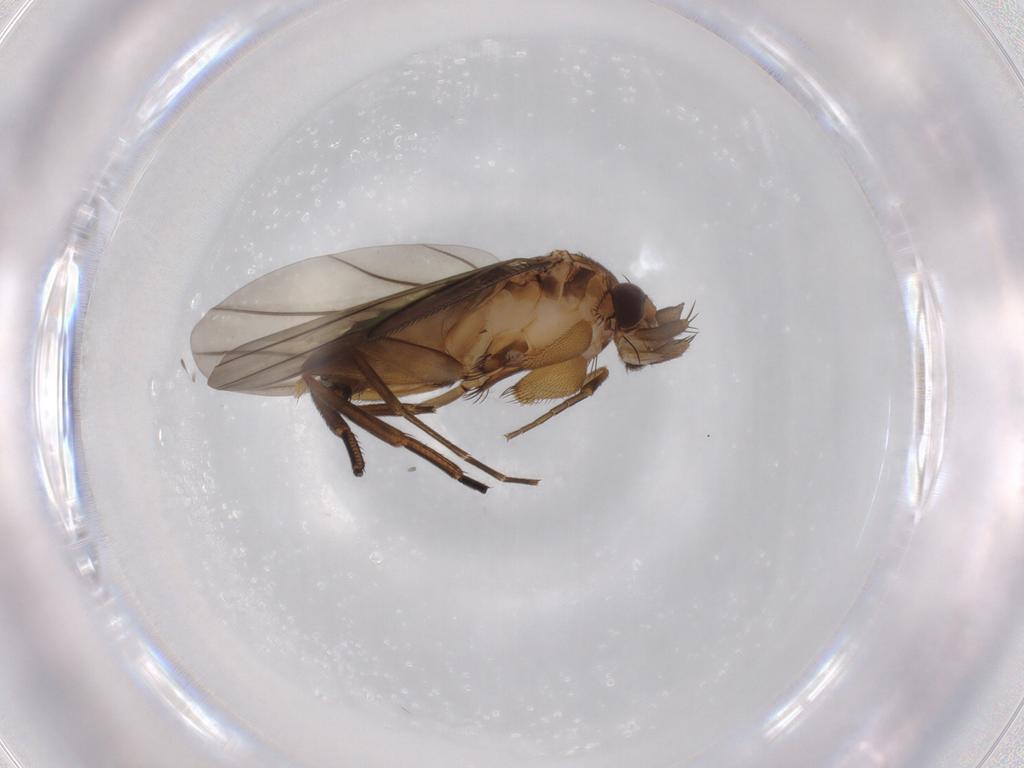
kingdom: Animalia
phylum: Arthropoda
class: Insecta
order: Diptera
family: Phoridae
